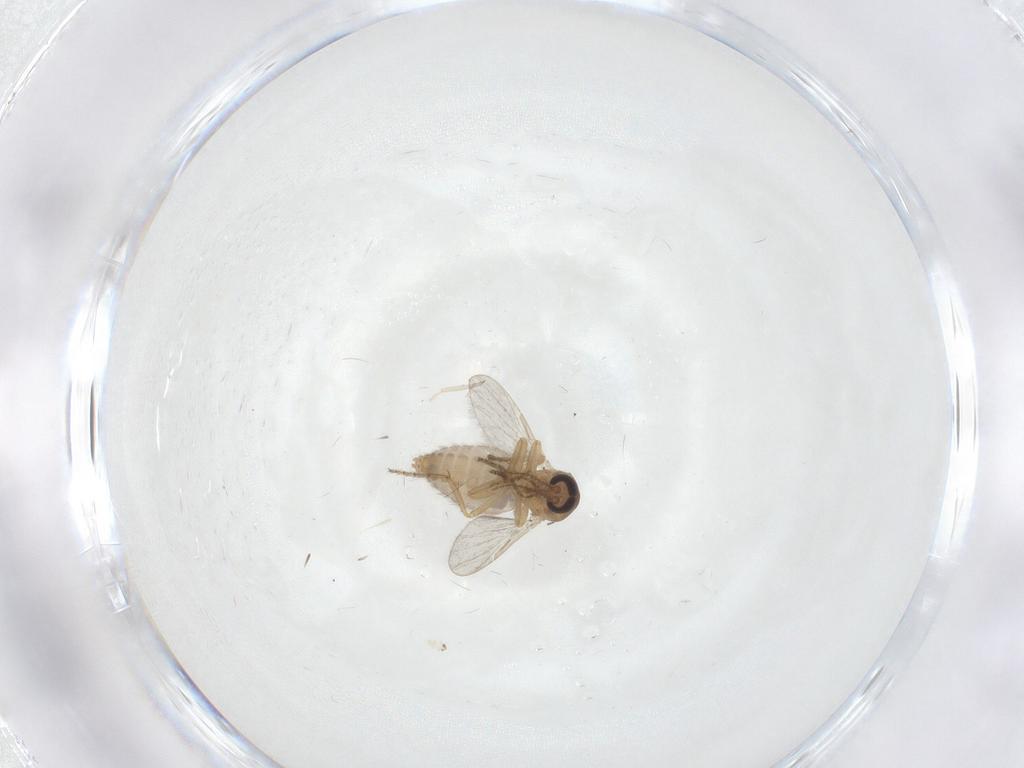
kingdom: Animalia
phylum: Arthropoda
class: Insecta
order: Diptera
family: Ceratopogonidae
